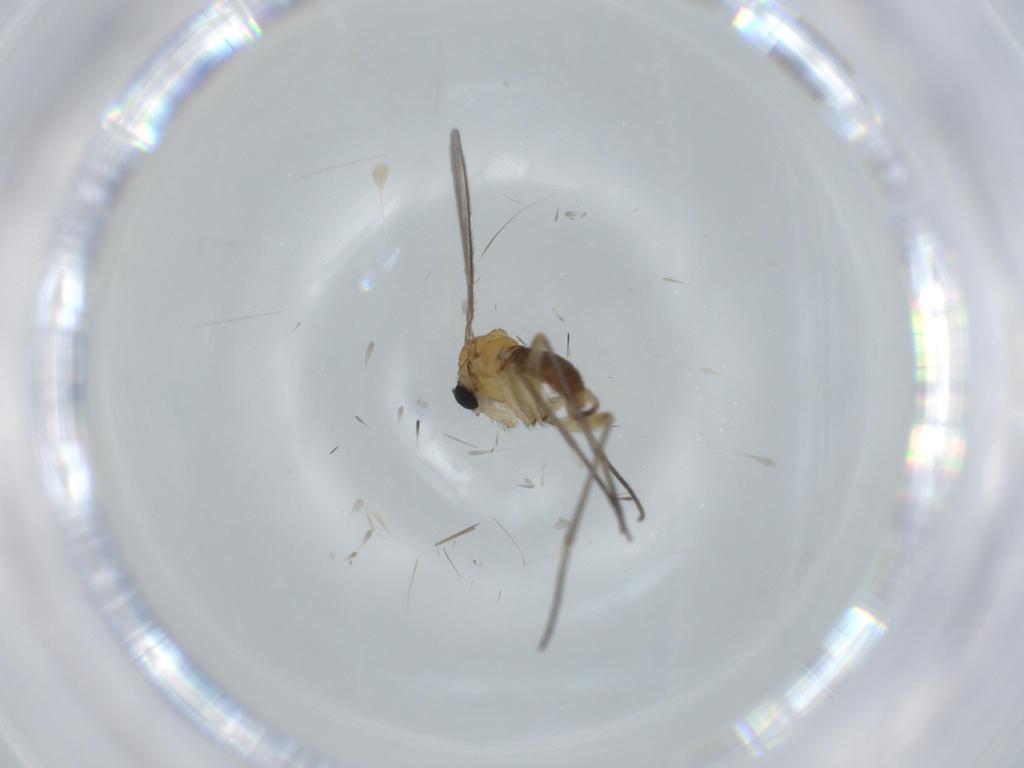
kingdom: Animalia
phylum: Arthropoda
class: Insecta
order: Diptera
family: Sciaridae
